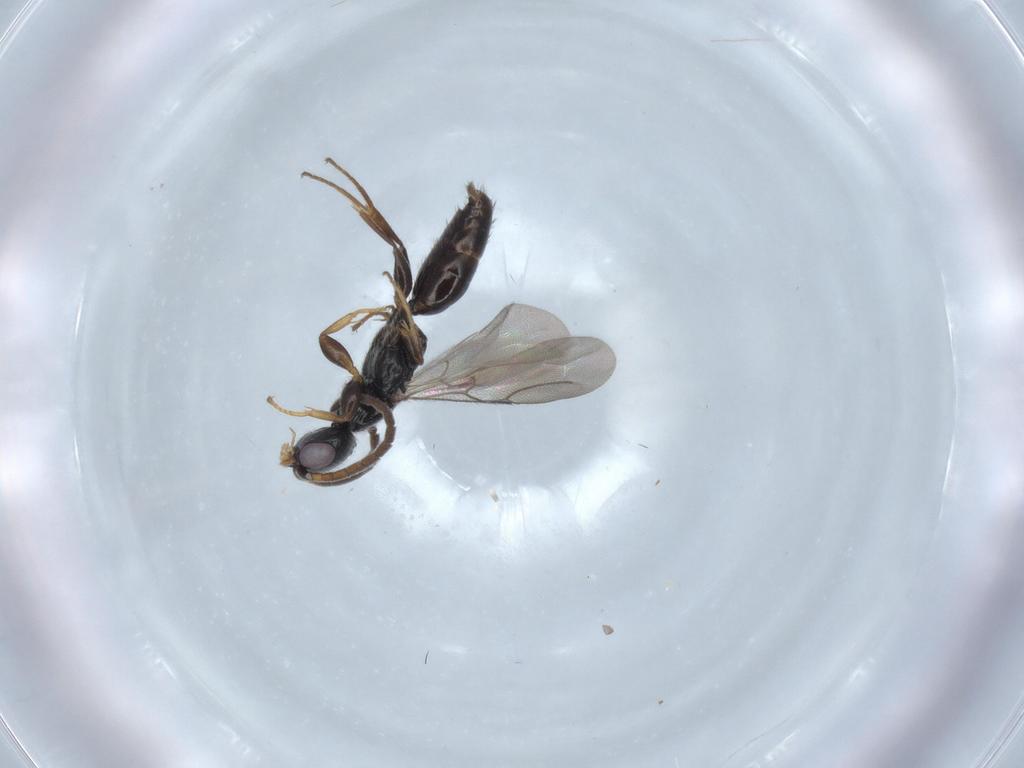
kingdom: Animalia
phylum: Arthropoda
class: Insecta
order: Hymenoptera
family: Bethylidae
